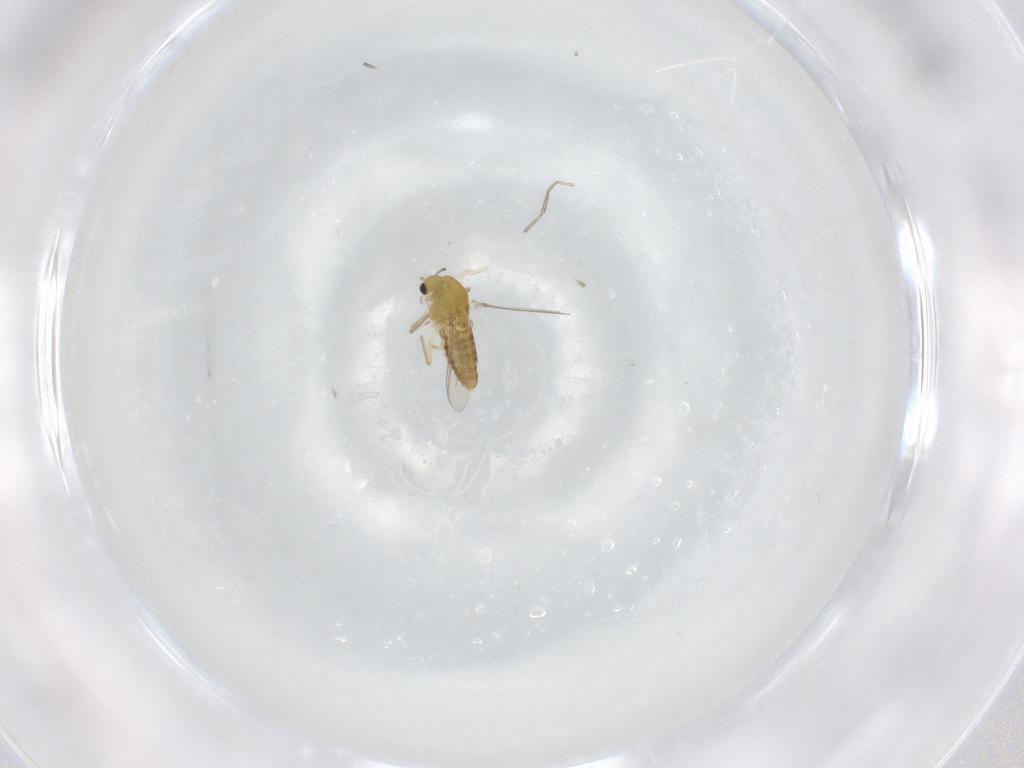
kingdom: Animalia
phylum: Arthropoda
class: Insecta
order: Diptera
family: Chironomidae
